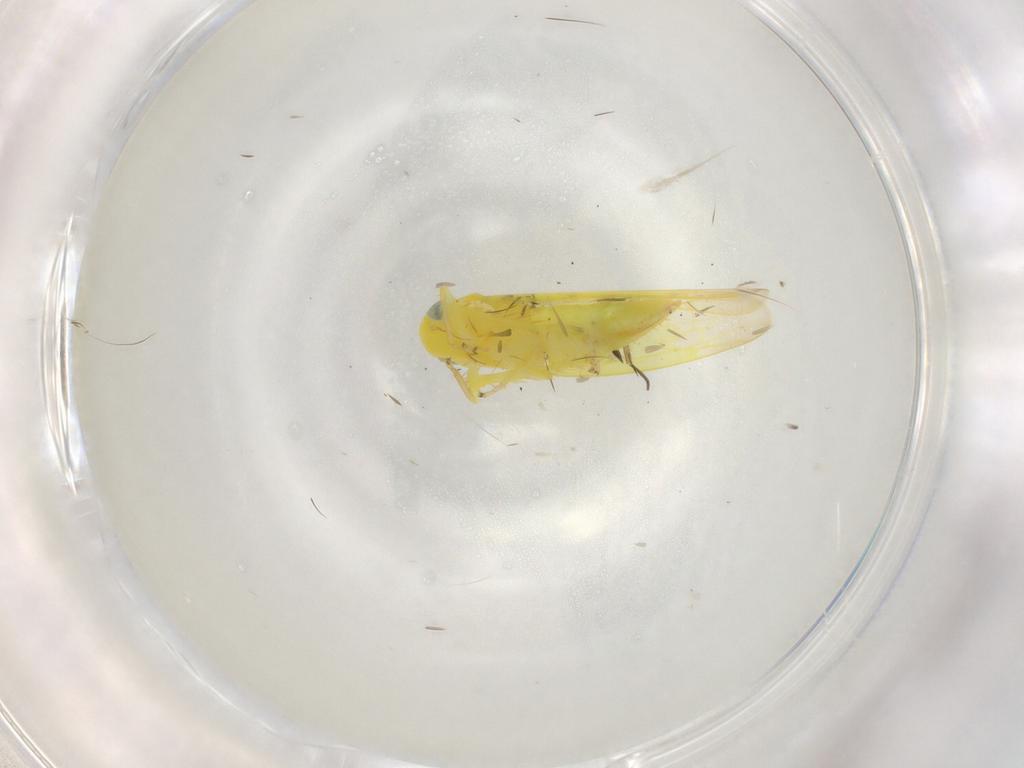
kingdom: Animalia
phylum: Arthropoda
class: Insecta
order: Hemiptera
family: Cicadellidae
